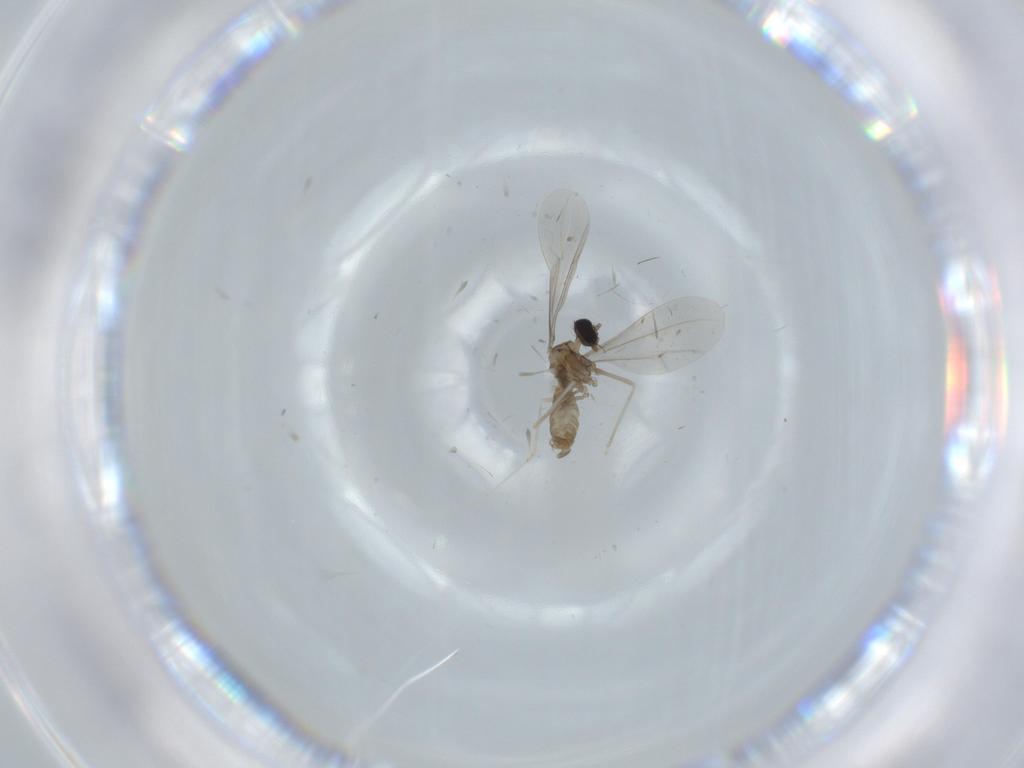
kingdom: Animalia
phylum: Arthropoda
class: Insecta
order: Diptera
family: Cecidomyiidae
